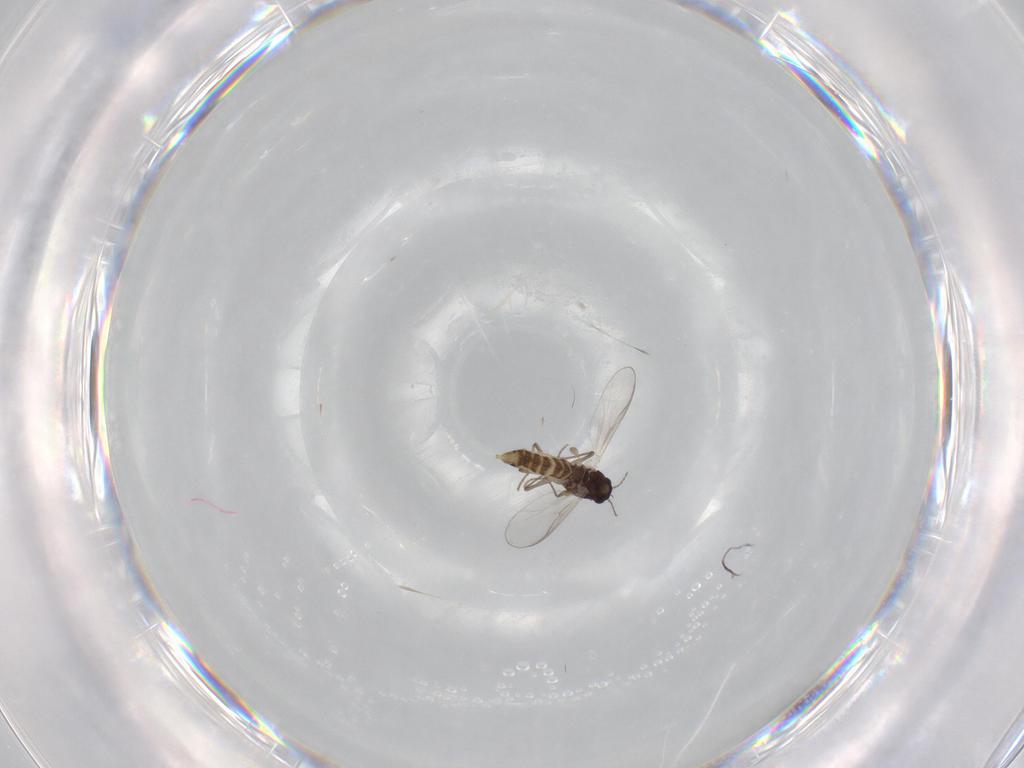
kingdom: Animalia
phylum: Arthropoda
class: Insecta
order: Diptera
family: Chironomidae
